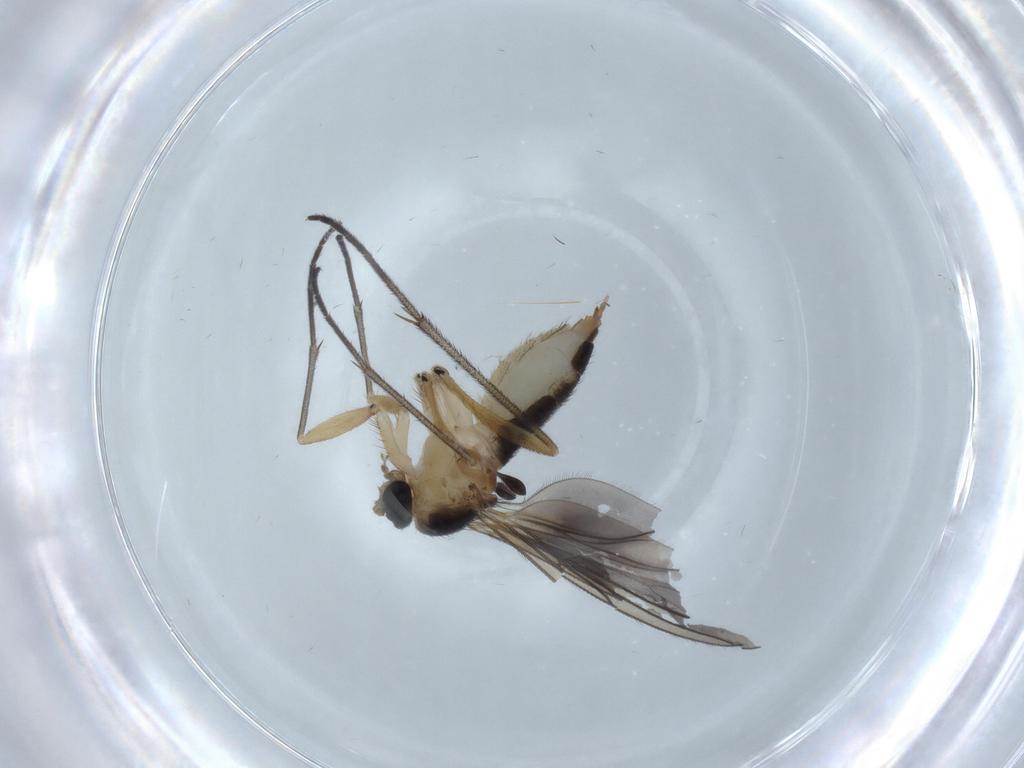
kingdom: Animalia
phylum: Arthropoda
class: Insecta
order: Diptera
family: Sciaridae
